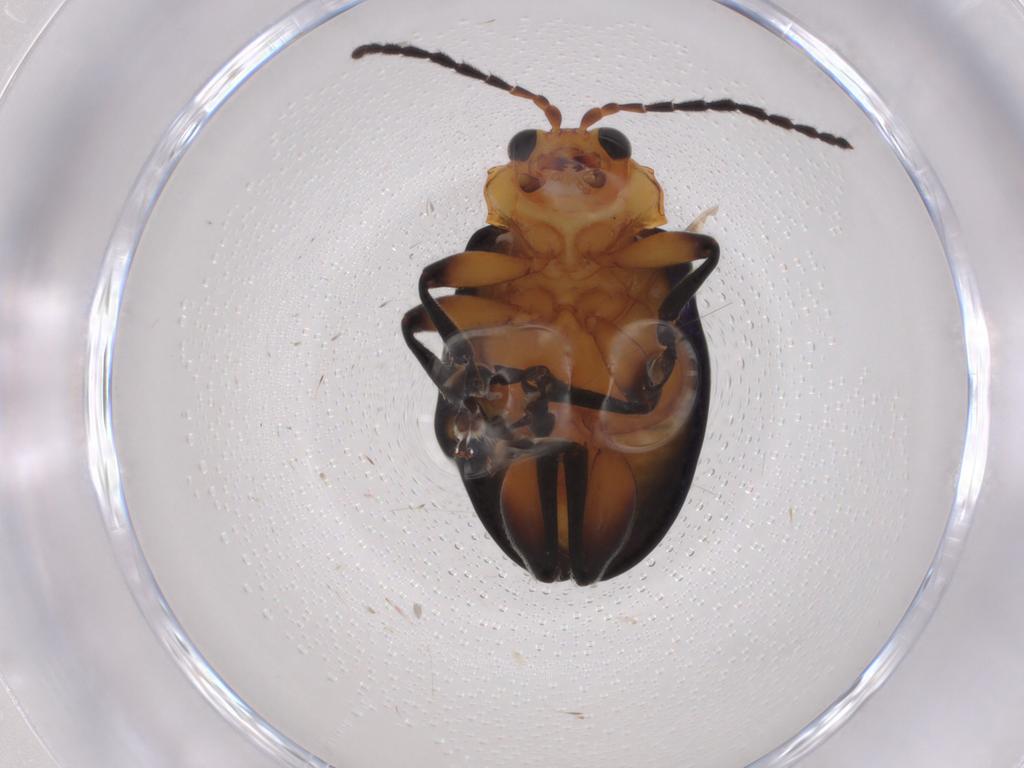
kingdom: Animalia
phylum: Arthropoda
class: Insecta
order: Coleoptera
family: Chrysomelidae
